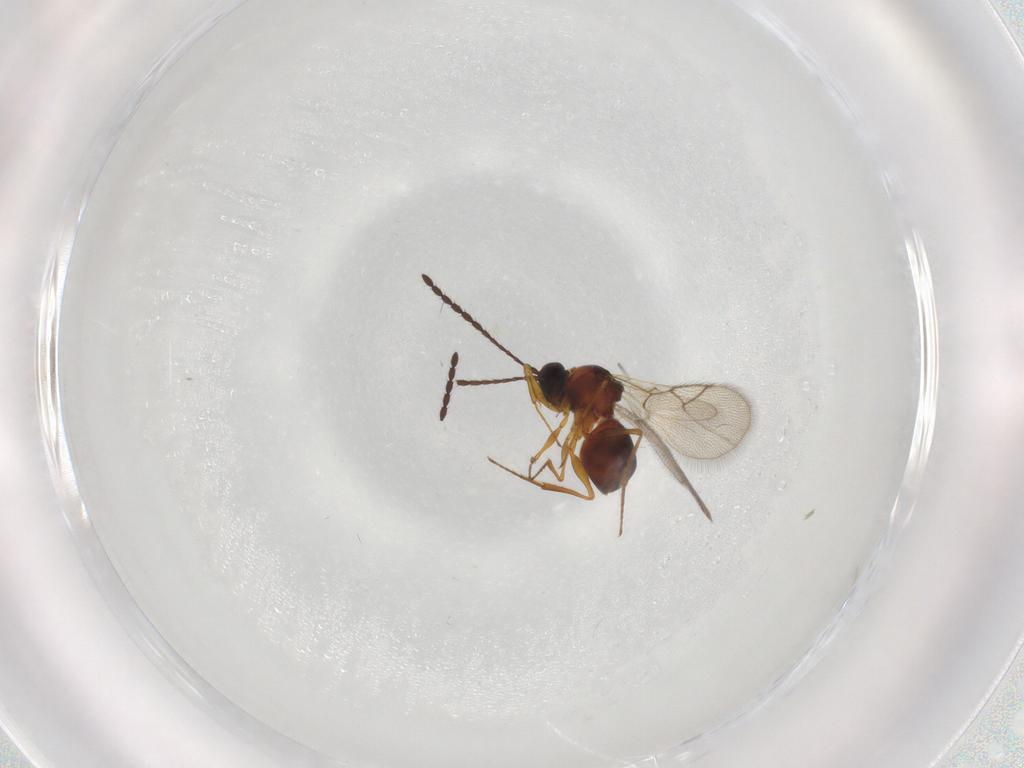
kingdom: Animalia
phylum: Arthropoda
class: Insecta
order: Hymenoptera
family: Figitidae
